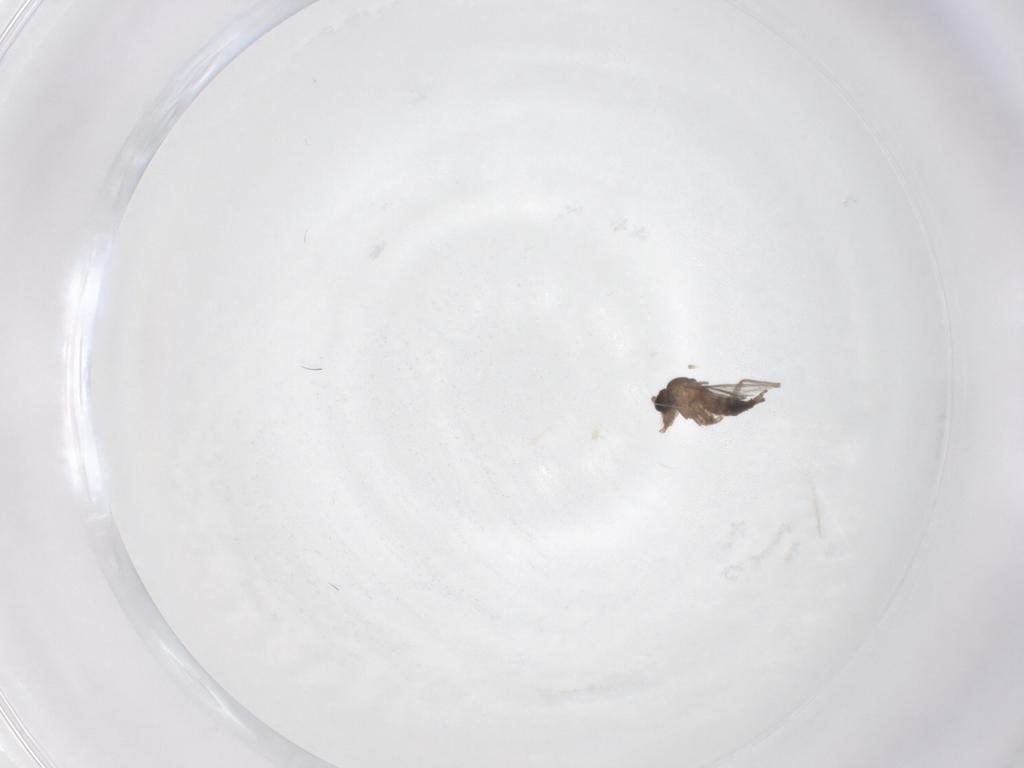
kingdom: Animalia
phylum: Arthropoda
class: Insecta
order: Diptera
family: Sciaridae
